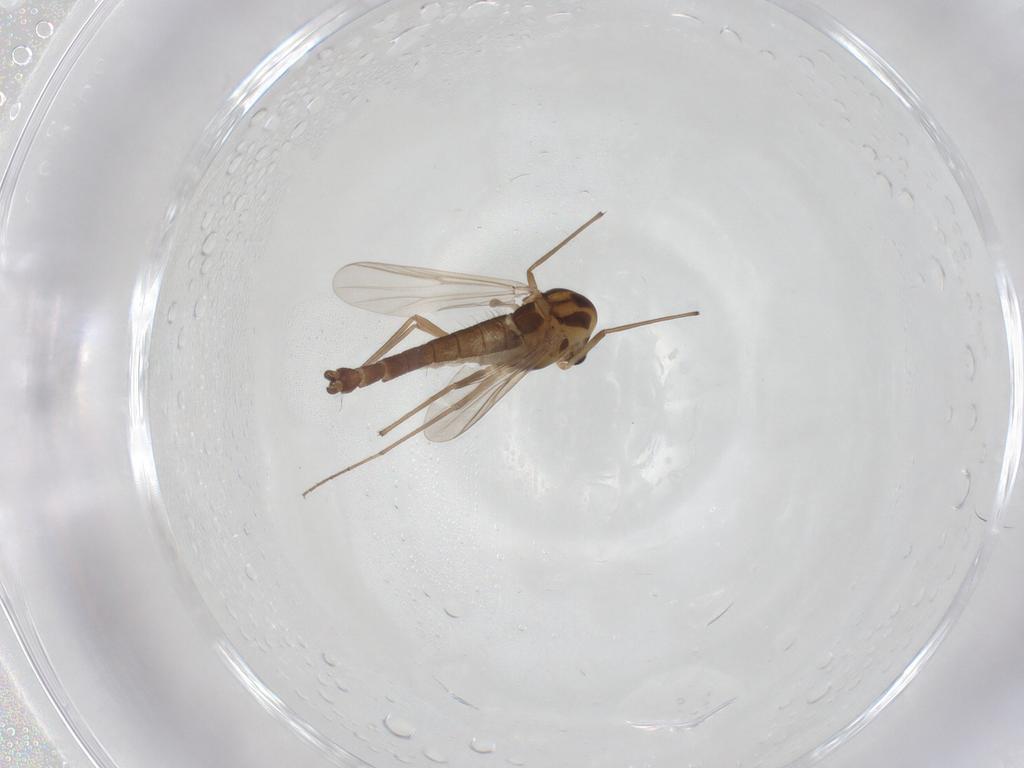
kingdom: Animalia
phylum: Arthropoda
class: Insecta
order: Diptera
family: Chironomidae
